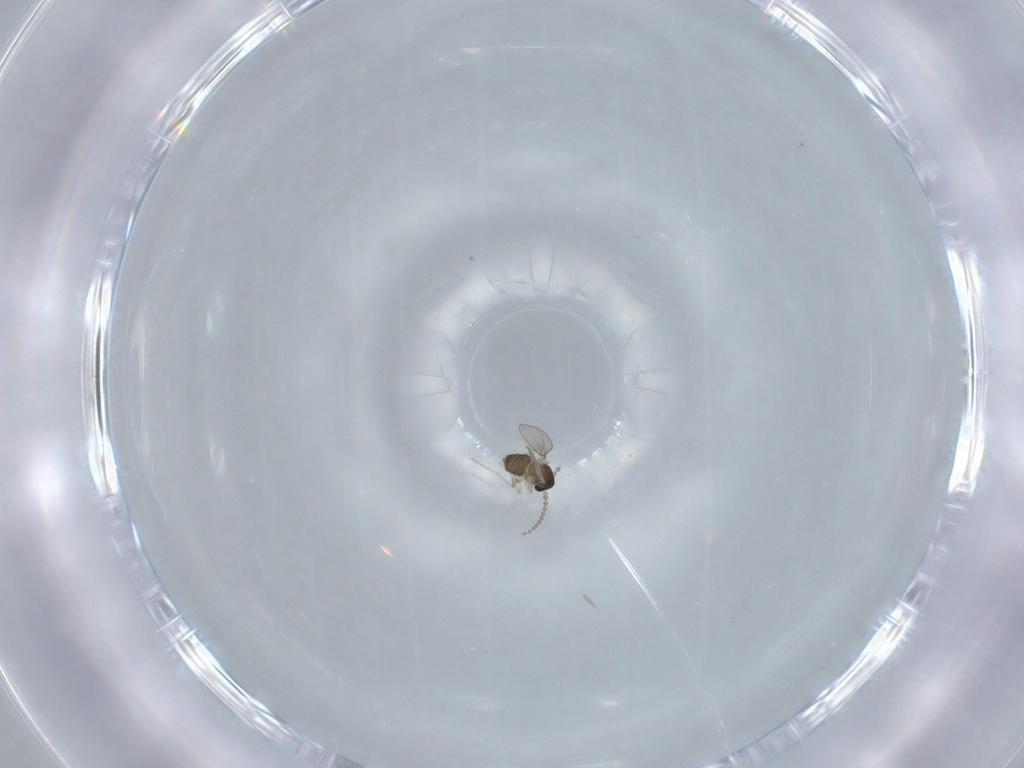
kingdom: Animalia
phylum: Arthropoda
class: Insecta
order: Diptera
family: Cecidomyiidae
